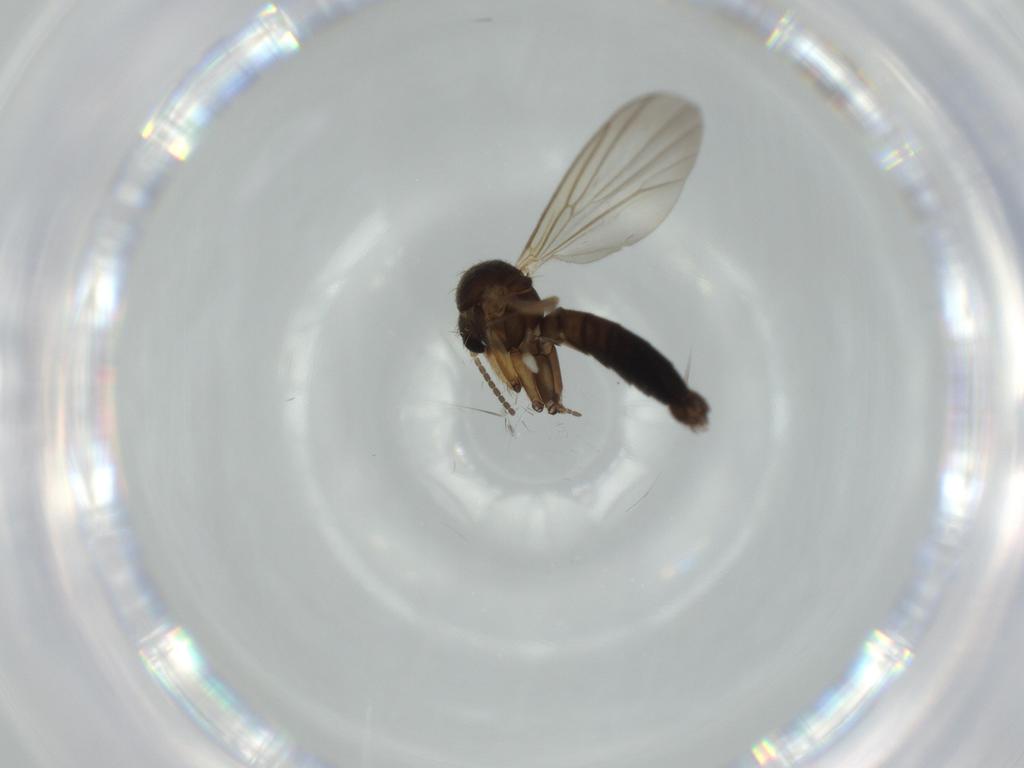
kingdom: Animalia
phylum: Arthropoda
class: Insecta
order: Diptera
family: Mycetophilidae
